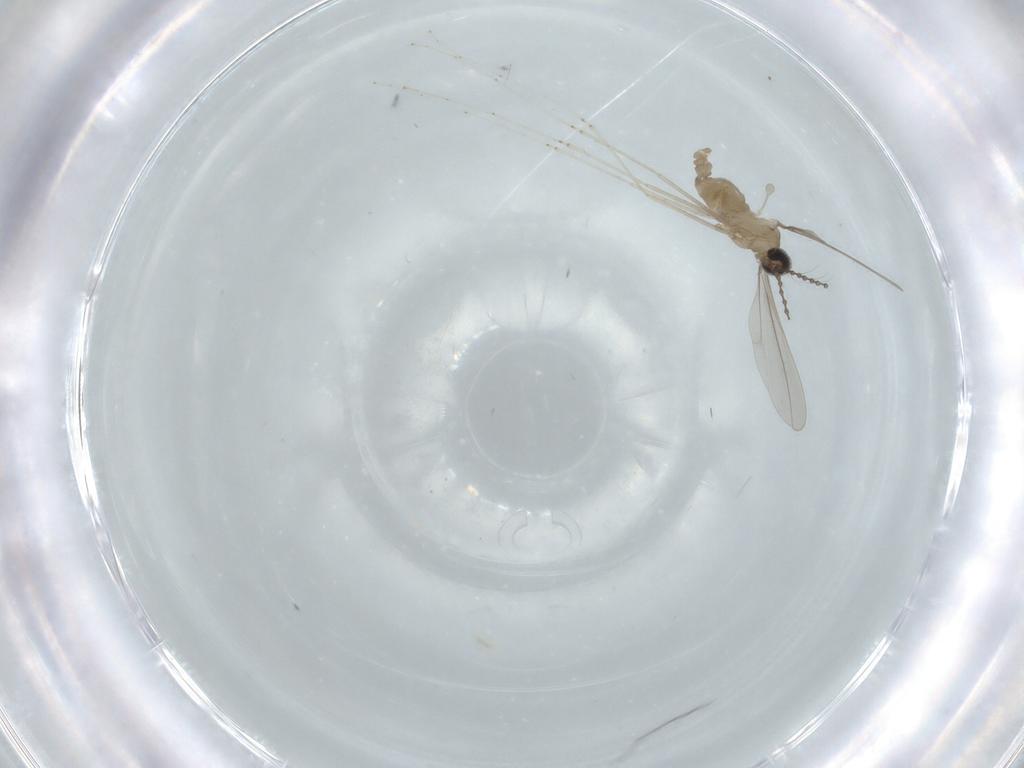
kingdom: Animalia
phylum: Arthropoda
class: Insecta
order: Diptera
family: Cecidomyiidae
